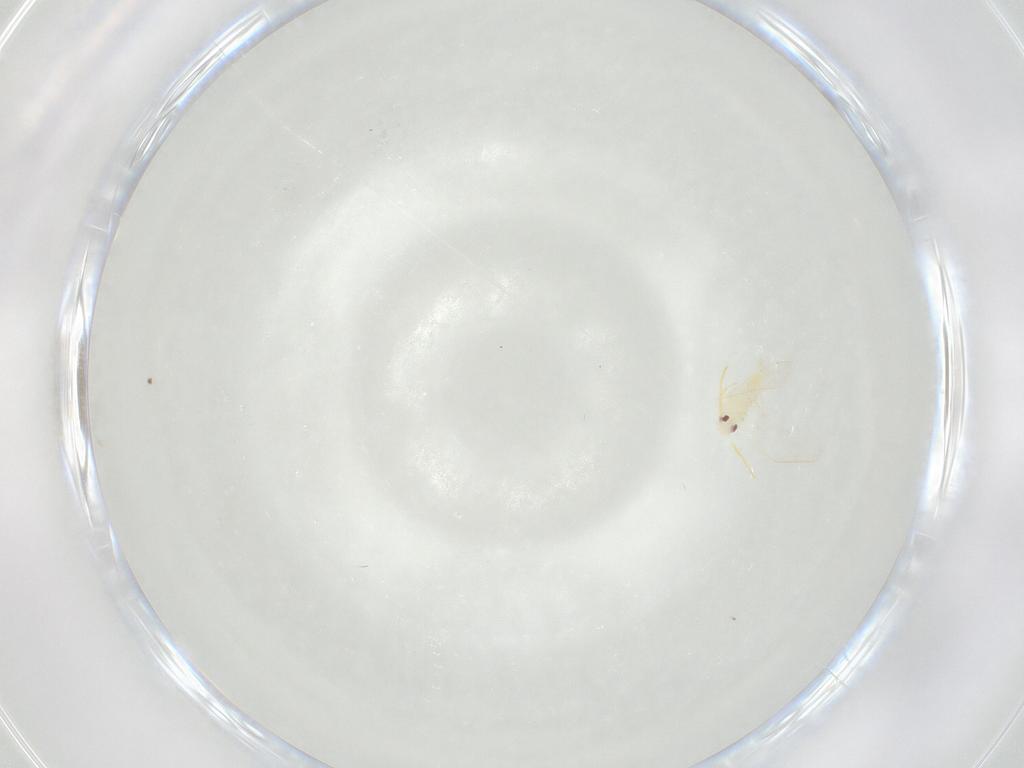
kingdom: Animalia
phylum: Arthropoda
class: Insecta
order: Hemiptera
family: Aleyrodidae
